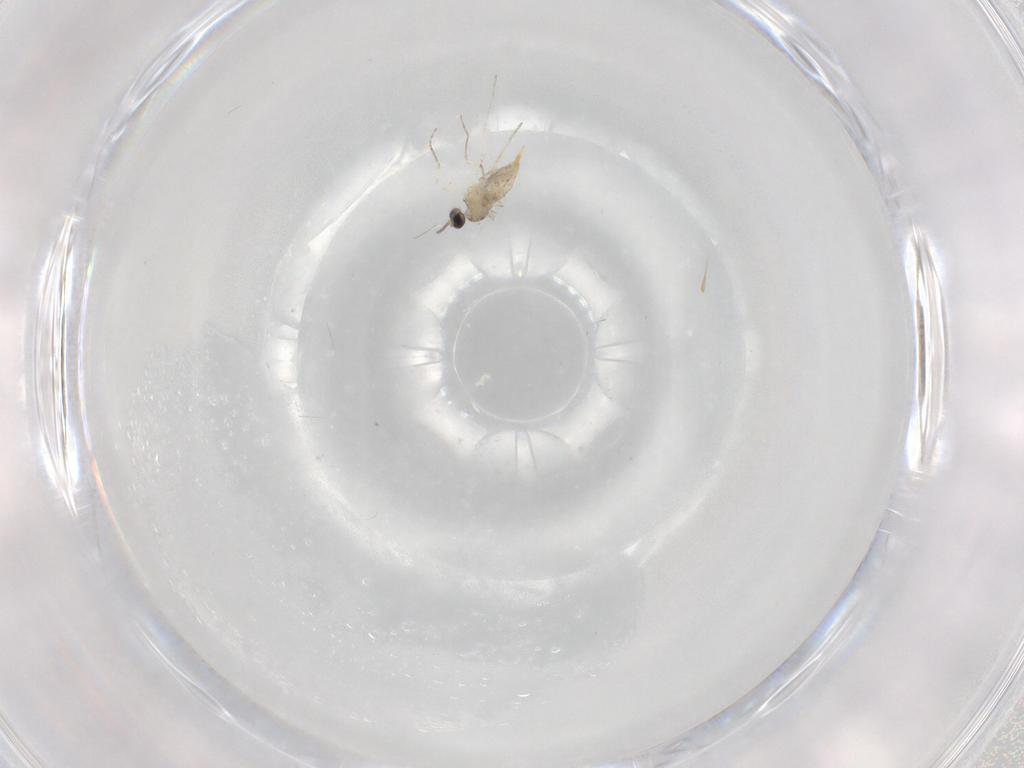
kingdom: Animalia
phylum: Arthropoda
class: Insecta
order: Diptera
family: Cecidomyiidae
